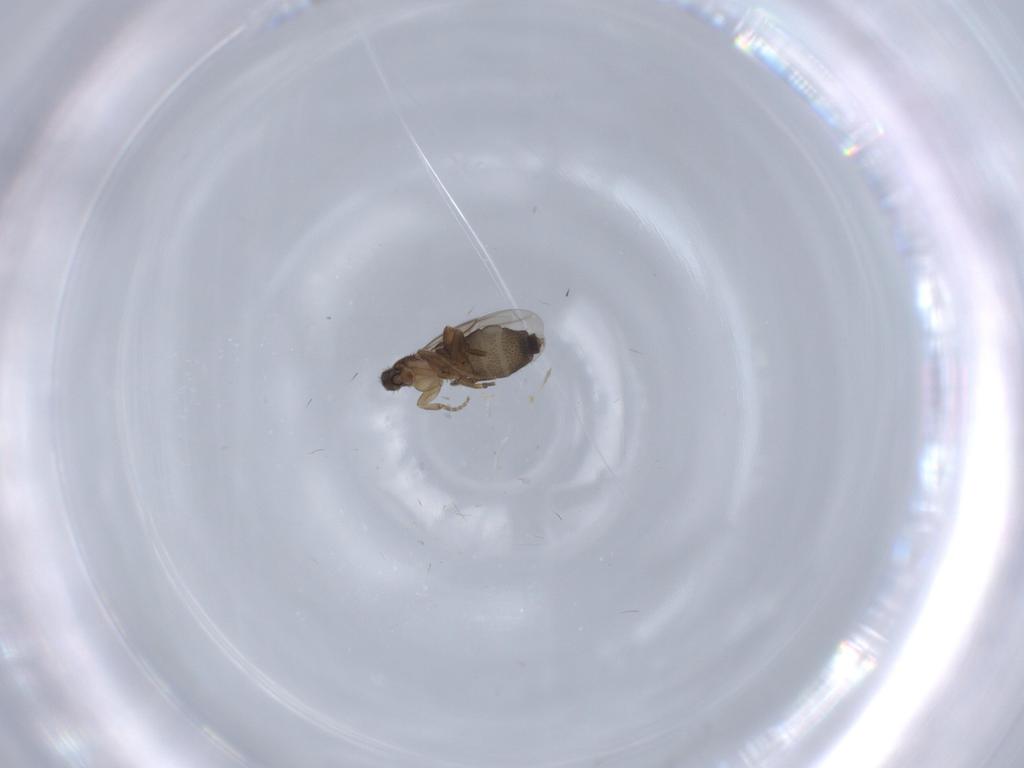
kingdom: Animalia
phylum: Arthropoda
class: Insecta
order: Diptera
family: Phoridae
